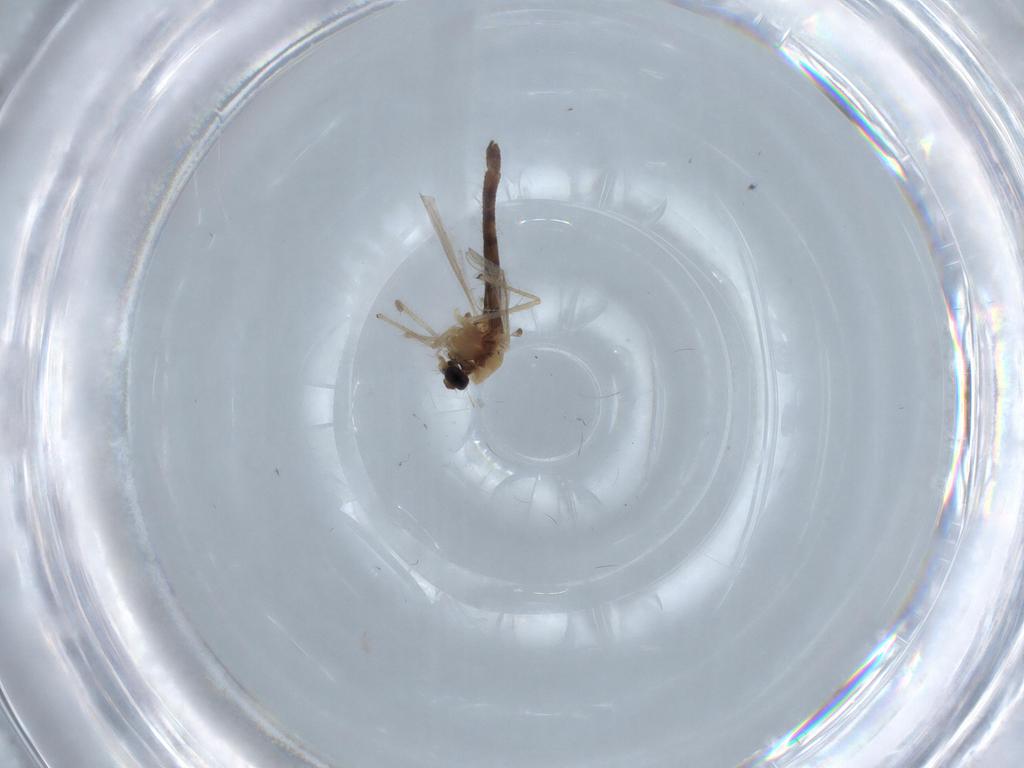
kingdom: Animalia
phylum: Arthropoda
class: Insecta
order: Diptera
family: Chironomidae
